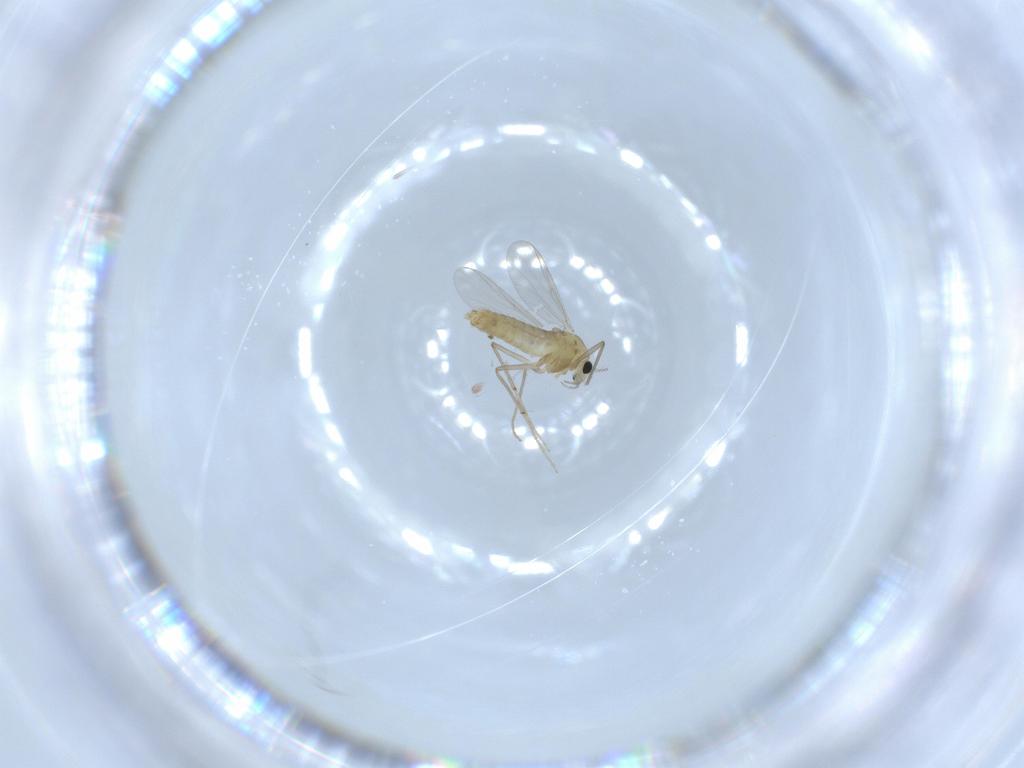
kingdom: Animalia
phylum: Arthropoda
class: Insecta
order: Diptera
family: Chironomidae
